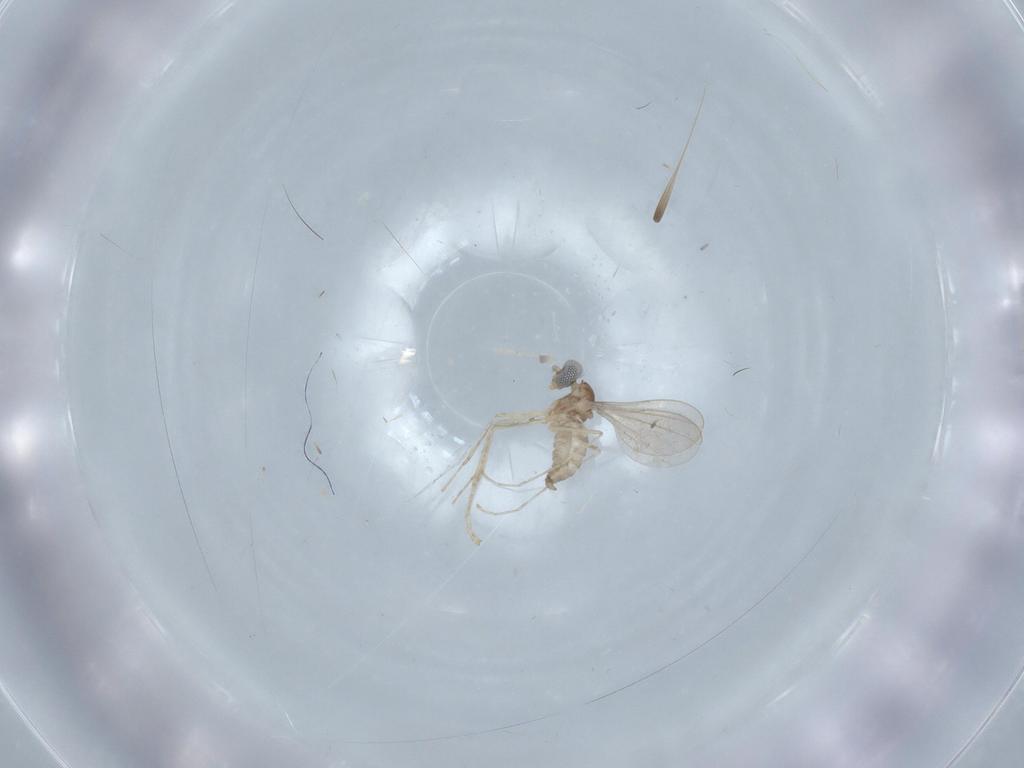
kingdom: Animalia
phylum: Arthropoda
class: Insecta
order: Diptera
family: Cecidomyiidae
